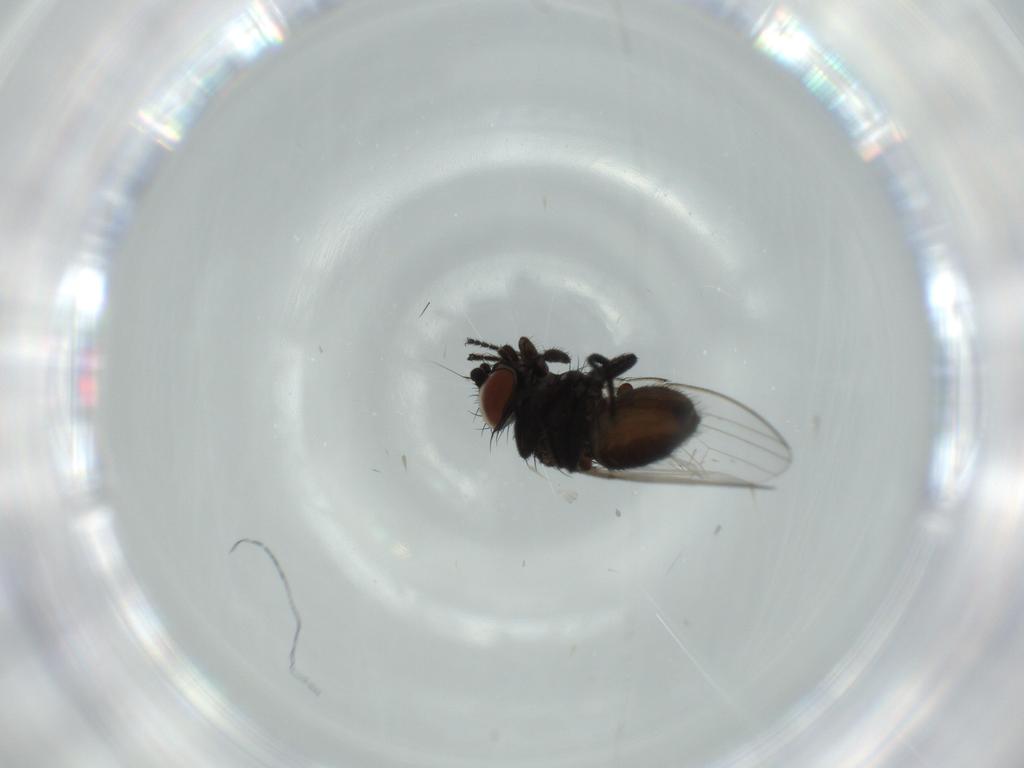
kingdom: Animalia
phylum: Arthropoda
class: Insecta
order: Diptera
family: Milichiidae
